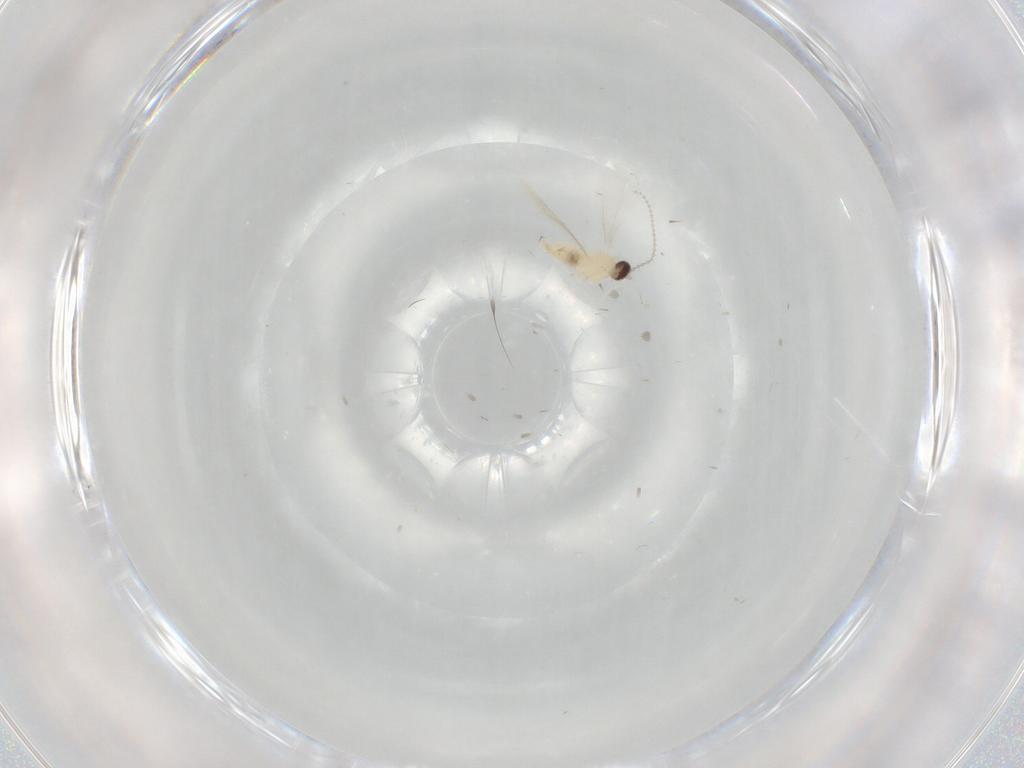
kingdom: Animalia
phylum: Arthropoda
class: Insecta
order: Diptera
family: Cecidomyiidae
